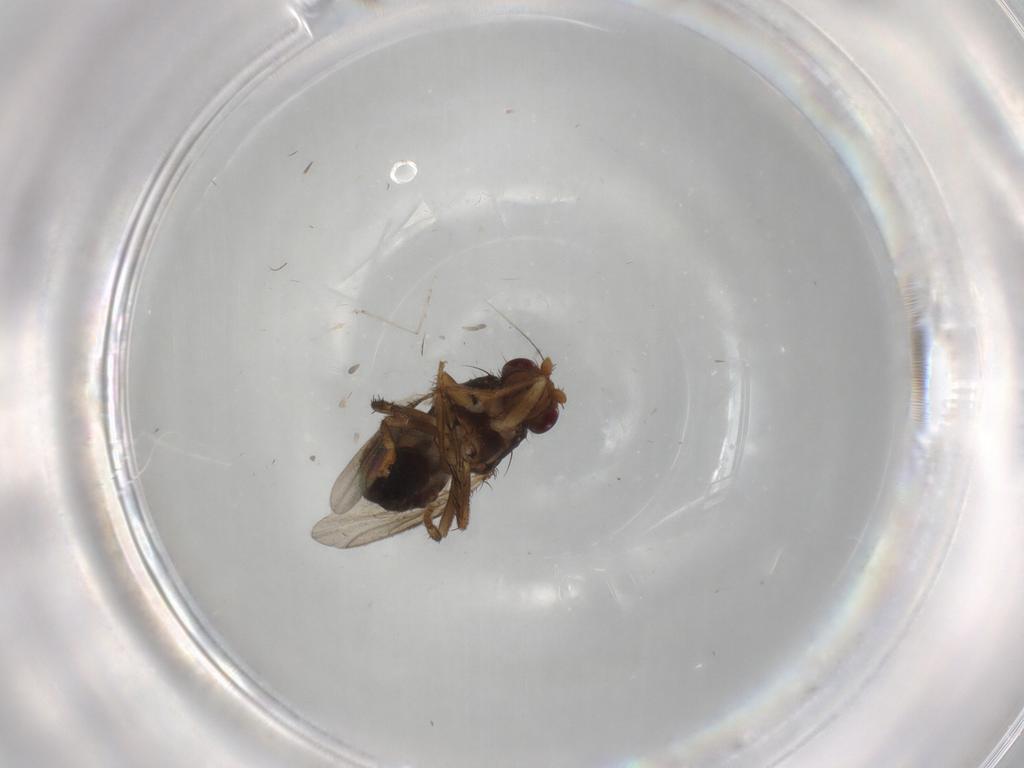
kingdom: Animalia
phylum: Arthropoda
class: Insecta
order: Diptera
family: Sphaeroceridae
